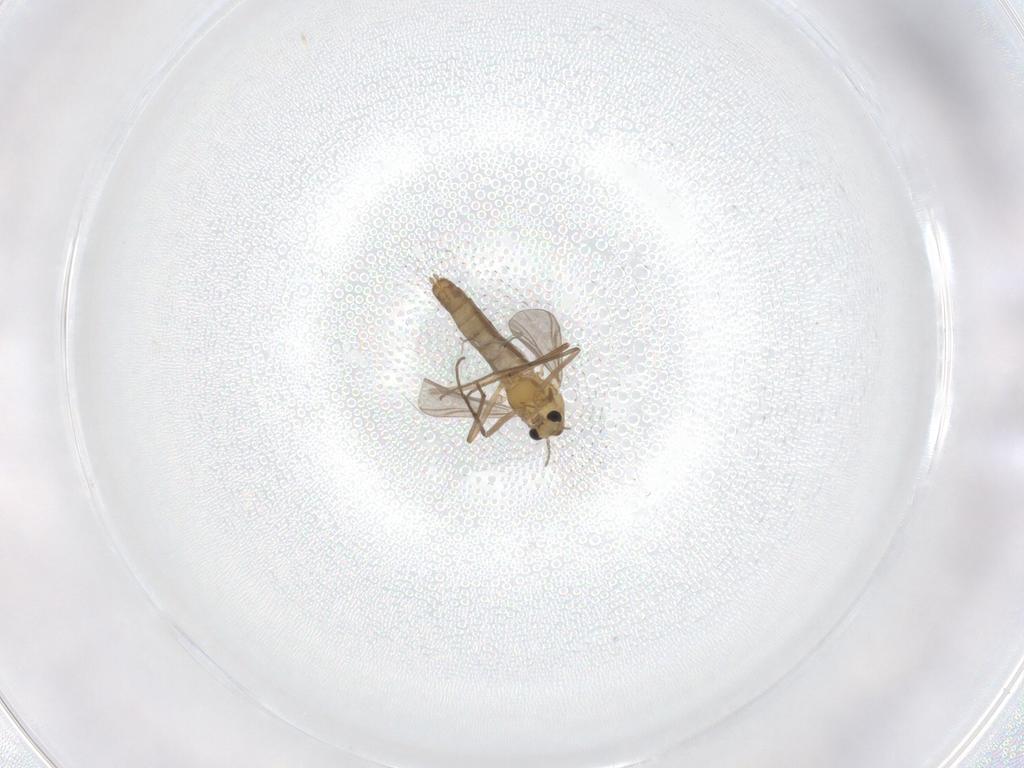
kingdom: Animalia
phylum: Arthropoda
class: Insecta
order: Diptera
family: Chironomidae
